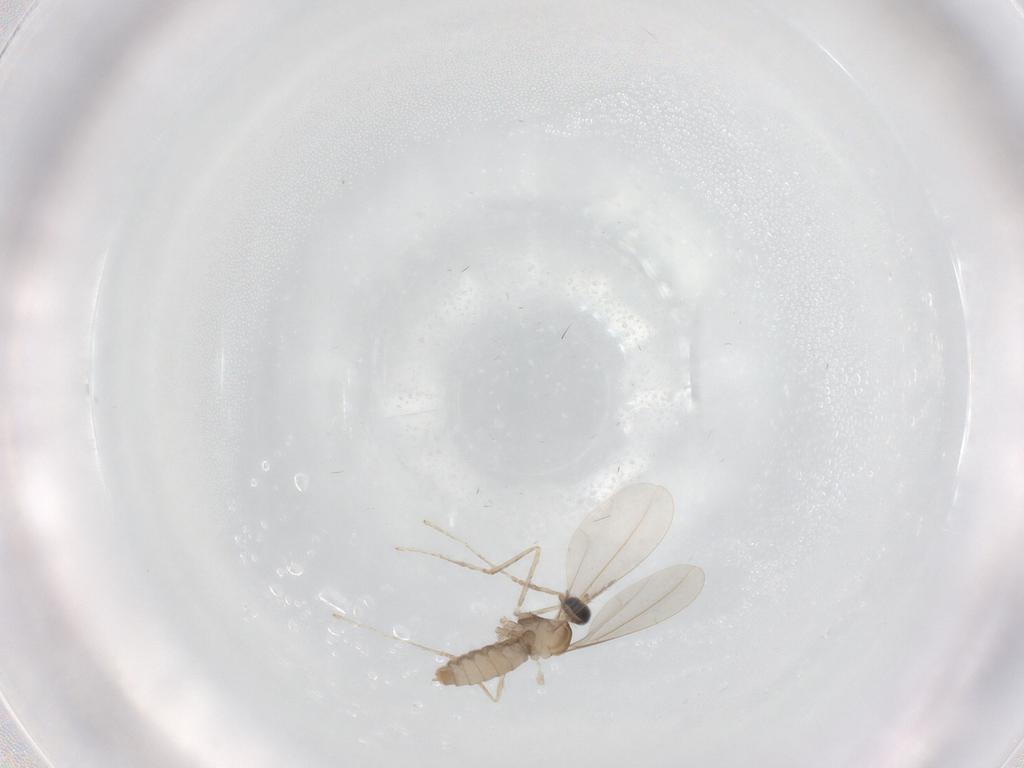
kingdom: Animalia
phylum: Arthropoda
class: Insecta
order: Diptera
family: Cecidomyiidae
